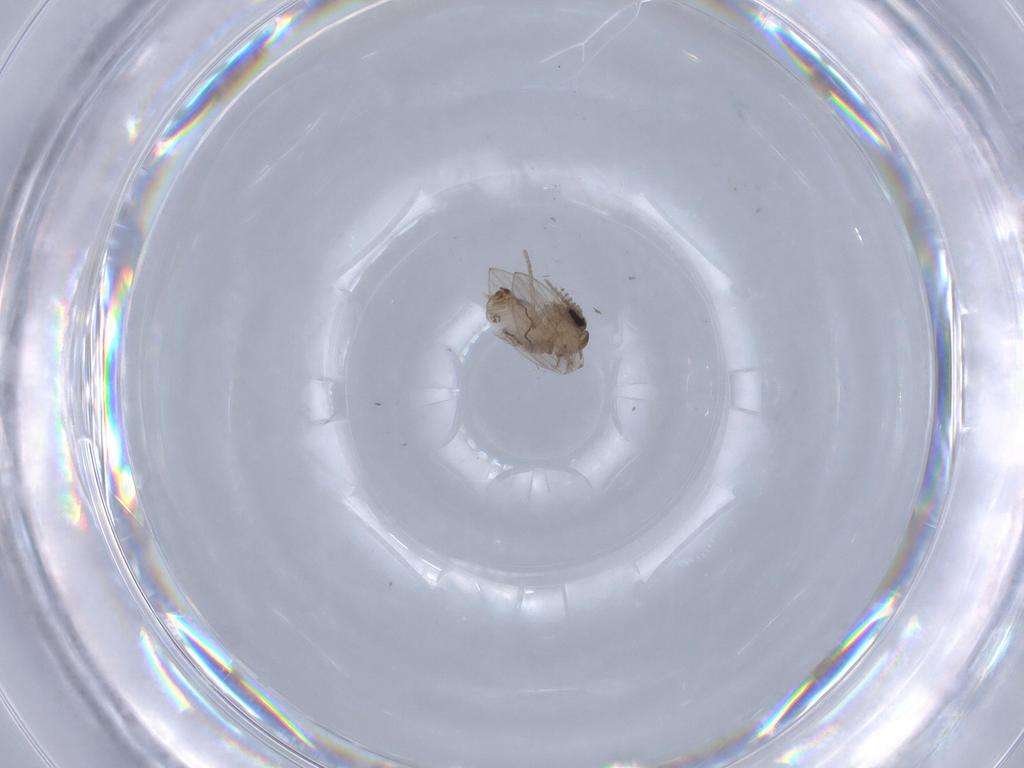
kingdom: Animalia
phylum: Arthropoda
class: Insecta
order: Diptera
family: Psychodidae
